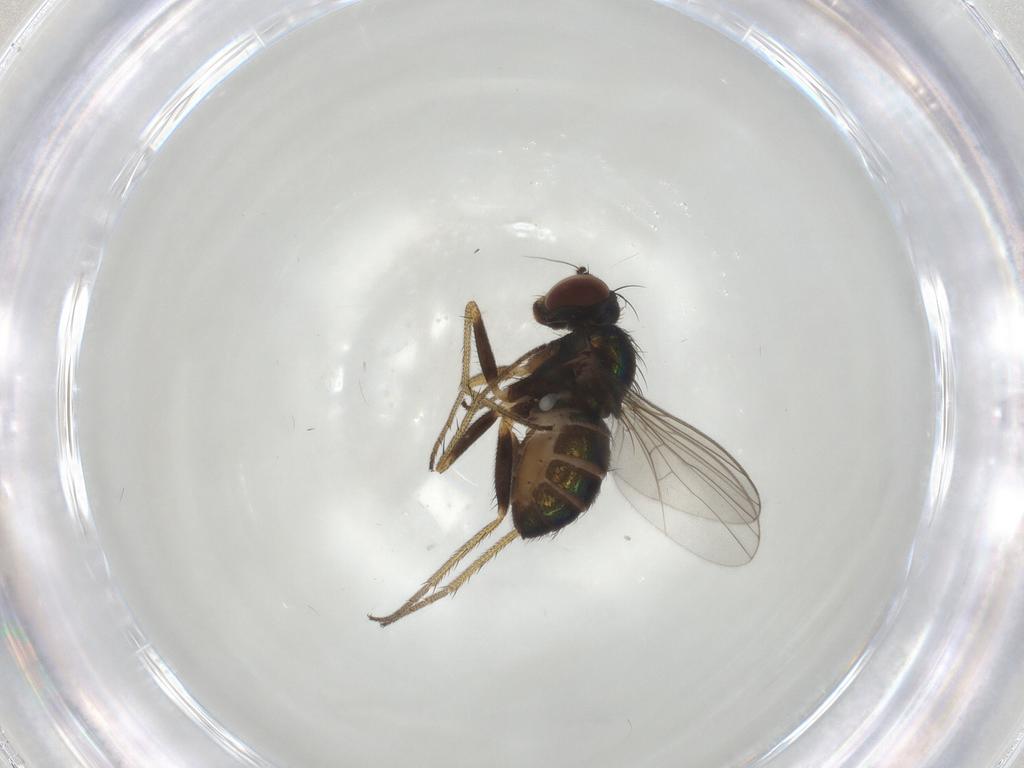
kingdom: Animalia
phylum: Arthropoda
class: Insecta
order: Diptera
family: Dolichopodidae
